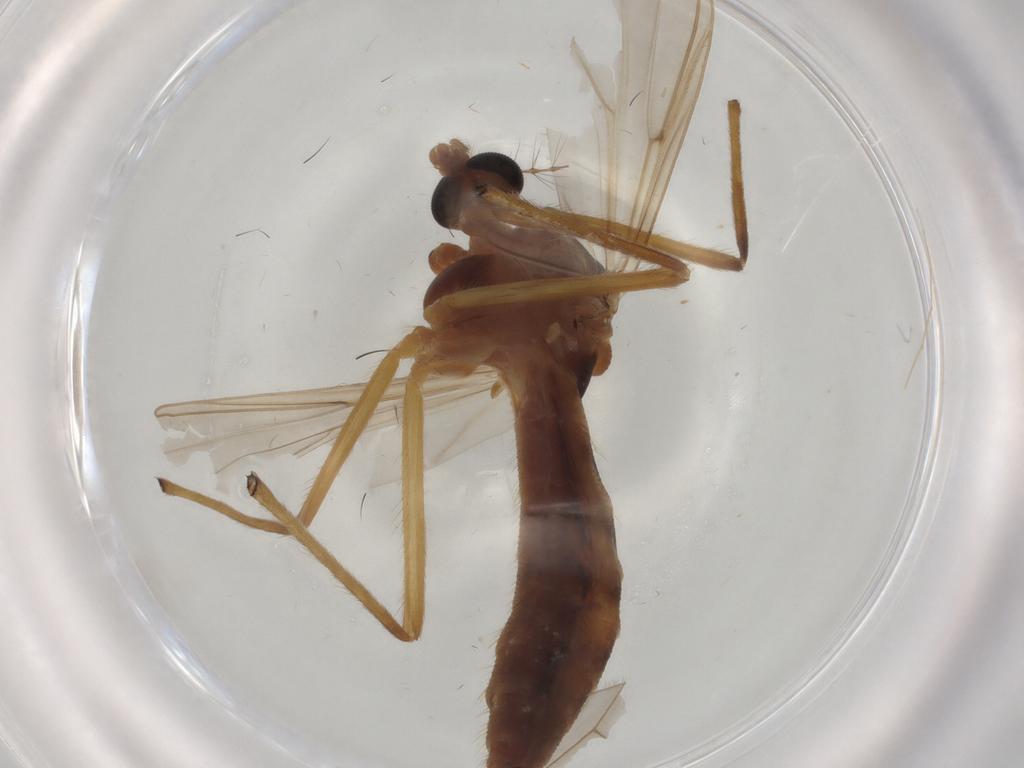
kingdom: Animalia
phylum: Arthropoda
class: Insecta
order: Diptera
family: Calliphoridae
